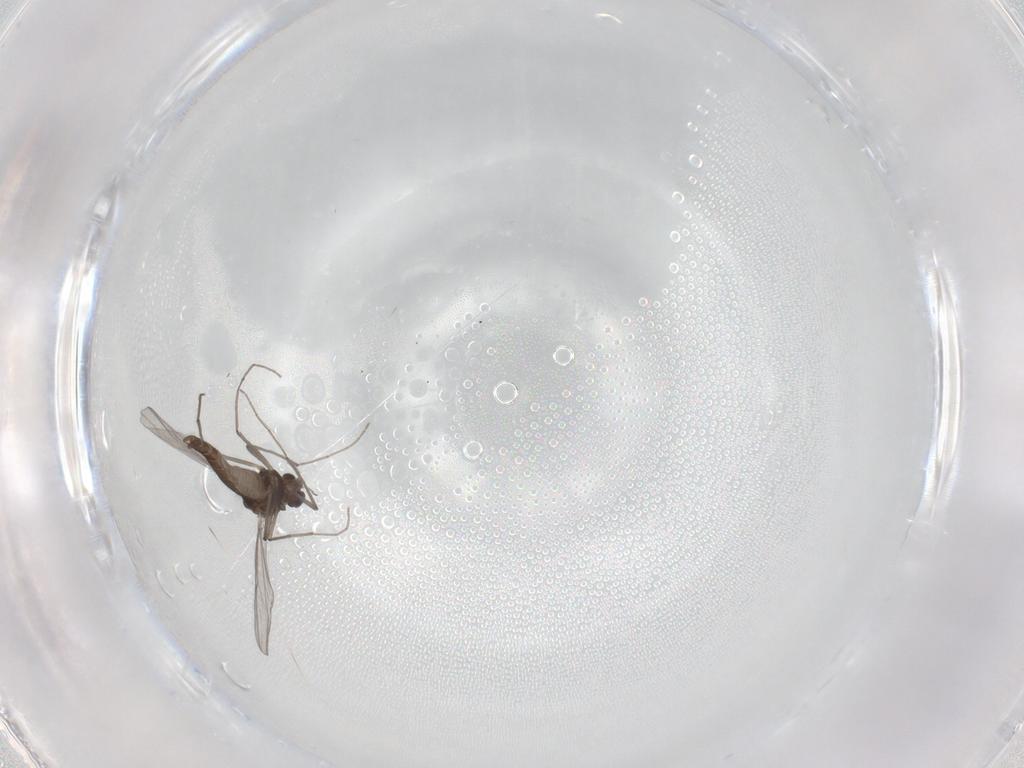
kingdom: Animalia
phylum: Arthropoda
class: Insecta
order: Diptera
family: Chironomidae
